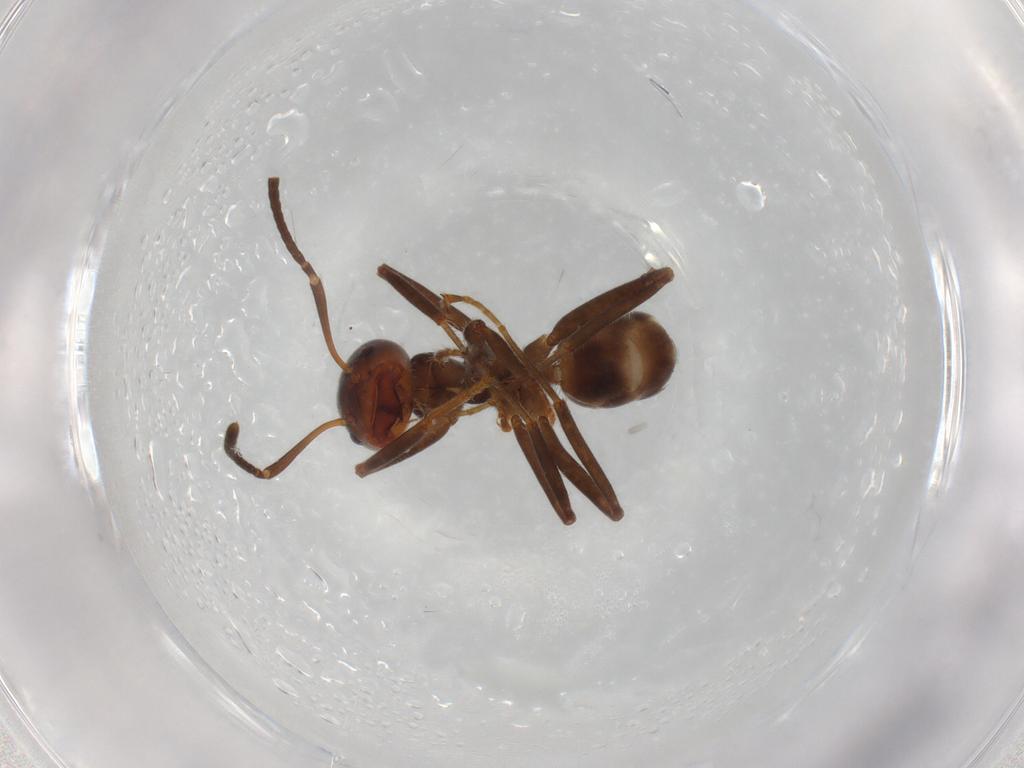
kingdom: Animalia
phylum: Arthropoda
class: Insecta
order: Hymenoptera
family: Formicidae
